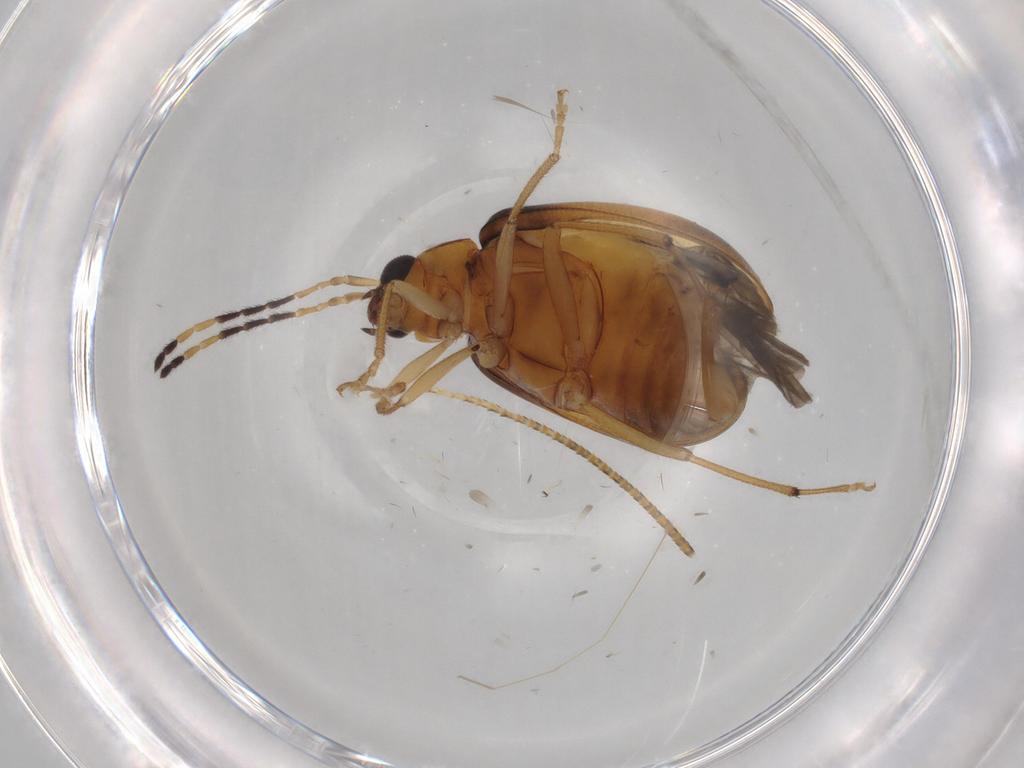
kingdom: Animalia
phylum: Arthropoda
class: Insecta
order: Coleoptera
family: Chrysomelidae
